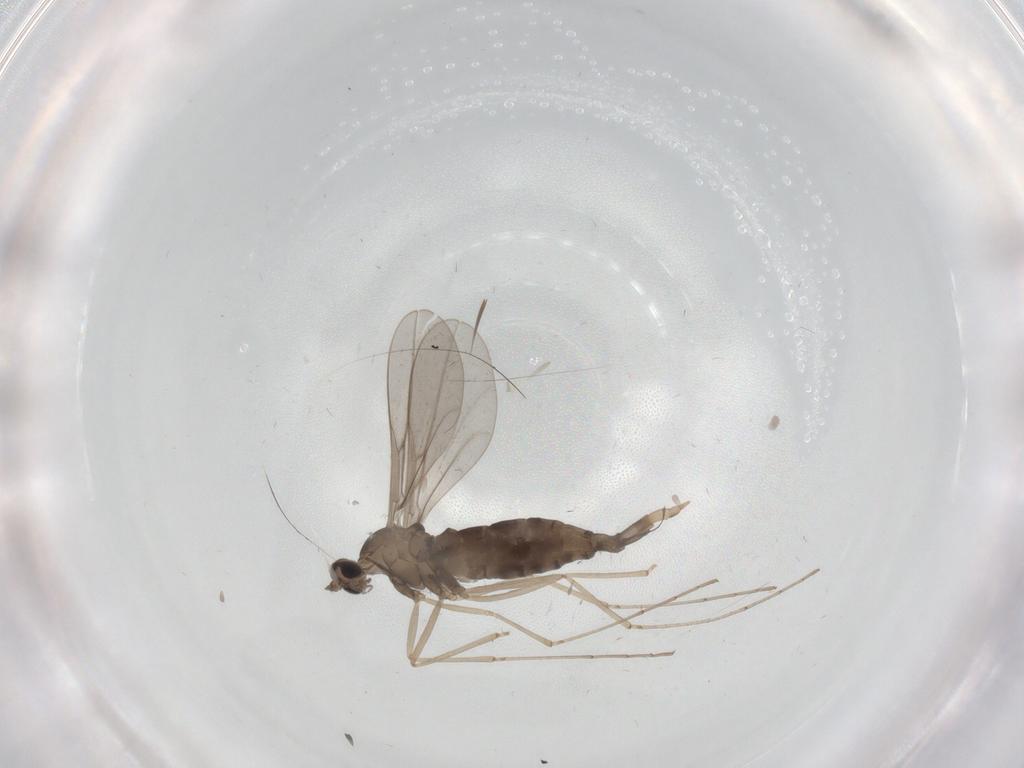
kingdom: Animalia
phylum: Arthropoda
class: Insecta
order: Diptera
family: Cecidomyiidae
